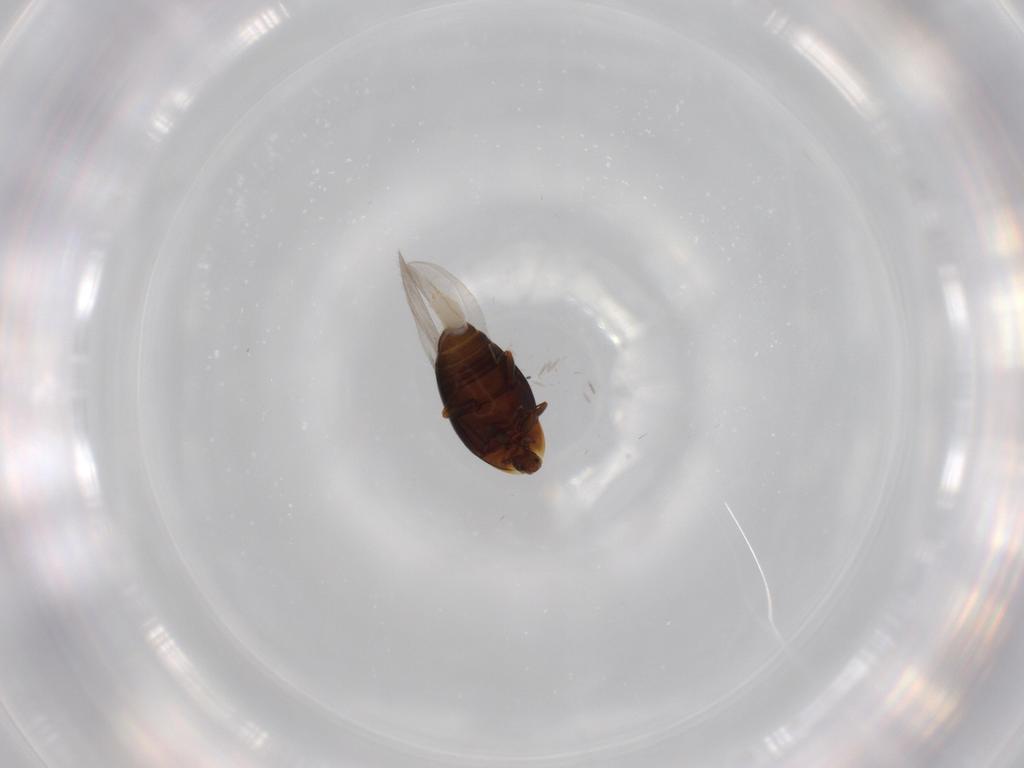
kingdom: Animalia
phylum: Arthropoda
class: Insecta
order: Coleoptera
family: Corylophidae
